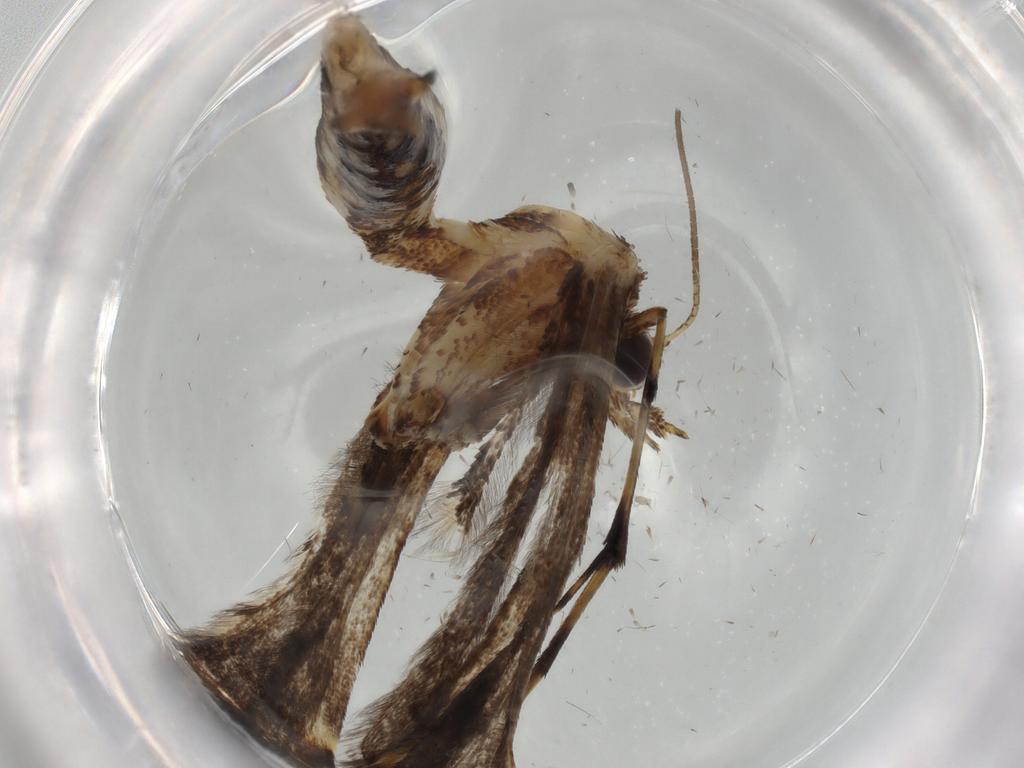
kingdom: Animalia
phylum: Arthropoda
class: Insecta
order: Lepidoptera
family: Pterophoridae
